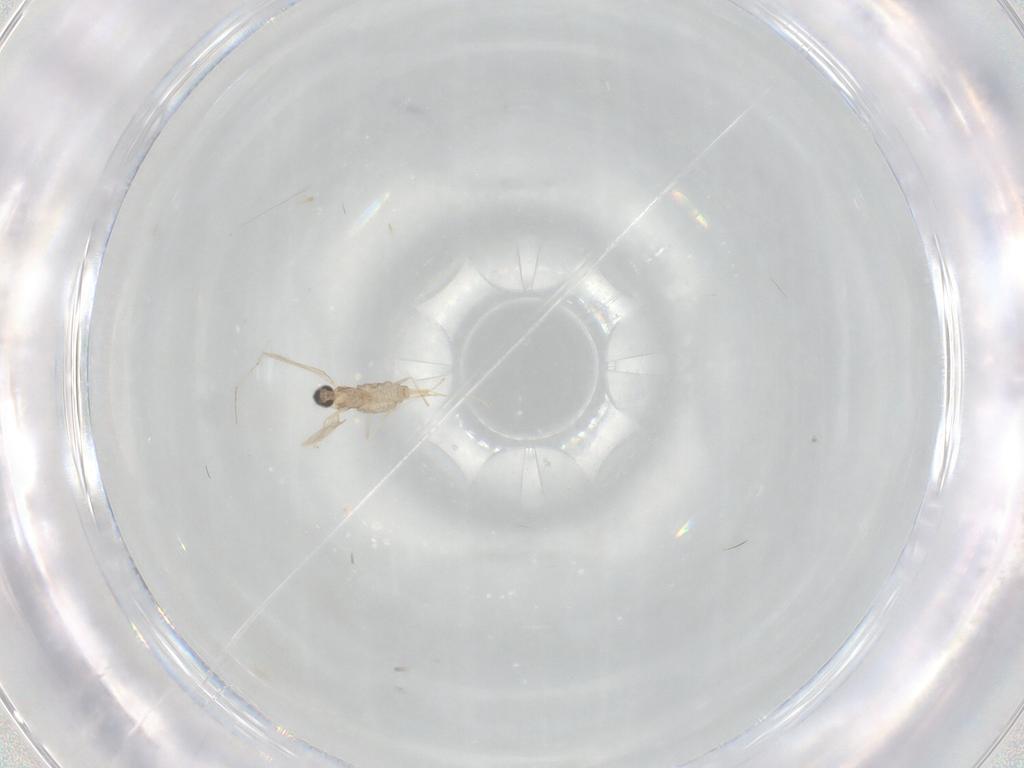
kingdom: Animalia
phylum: Arthropoda
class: Insecta
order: Diptera
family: Cecidomyiidae
